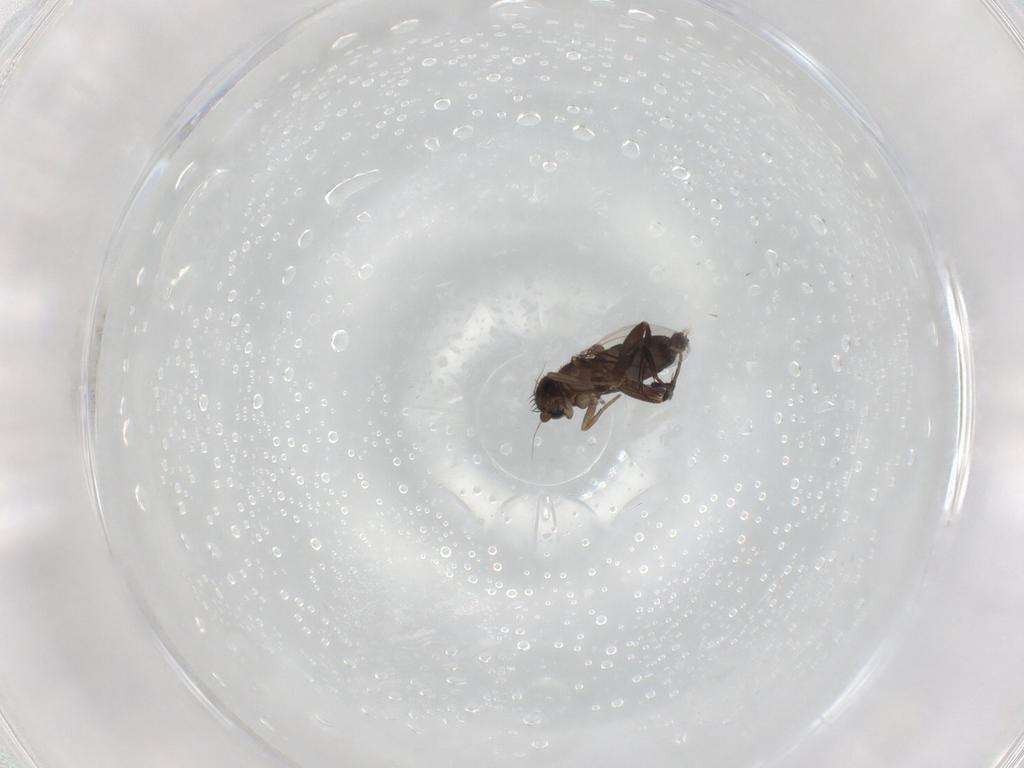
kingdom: Animalia
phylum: Arthropoda
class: Insecta
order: Diptera
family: Phoridae
